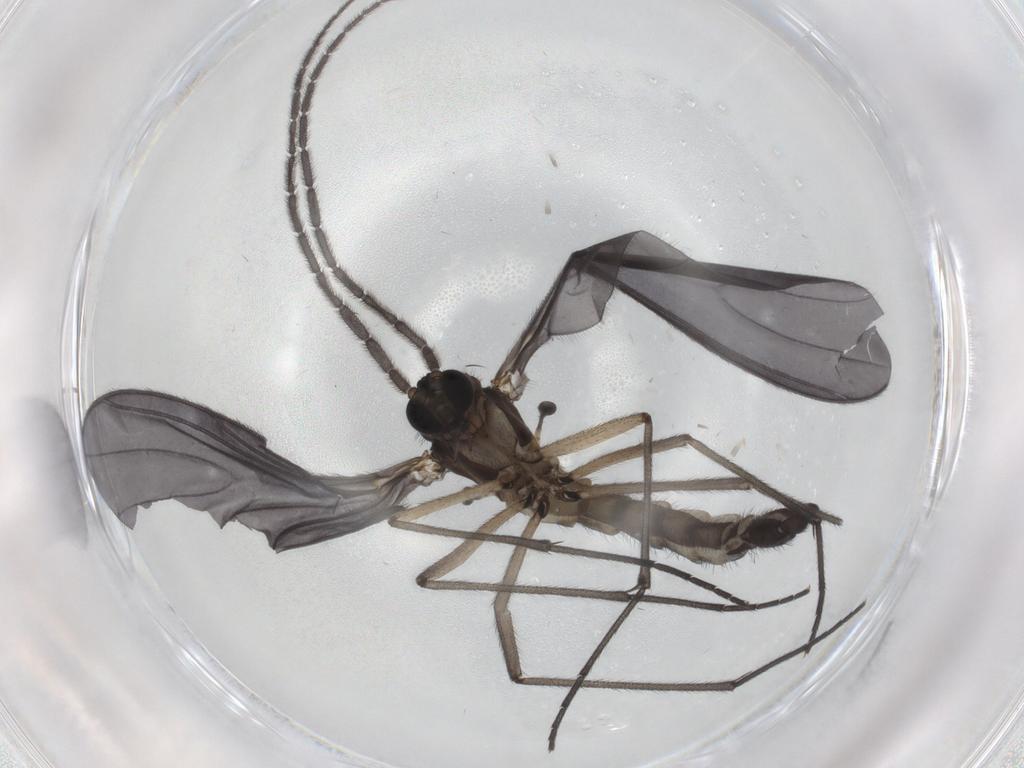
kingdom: Animalia
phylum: Arthropoda
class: Insecta
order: Diptera
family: Sciaridae
